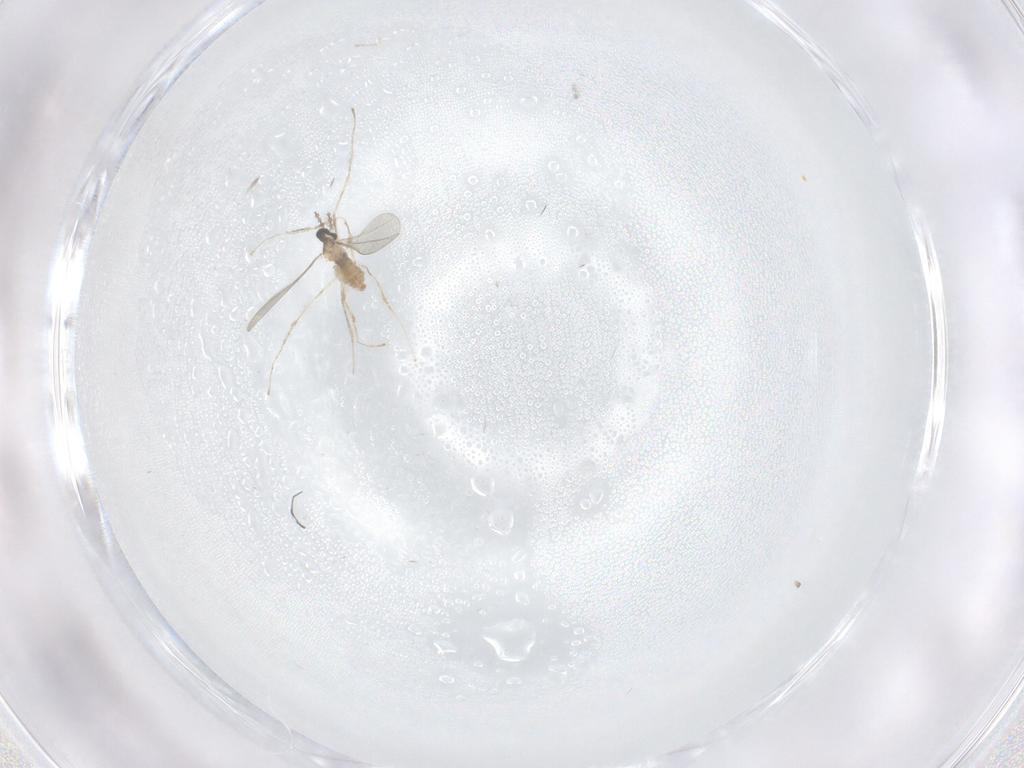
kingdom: Animalia
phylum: Arthropoda
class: Insecta
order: Diptera
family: Cecidomyiidae
